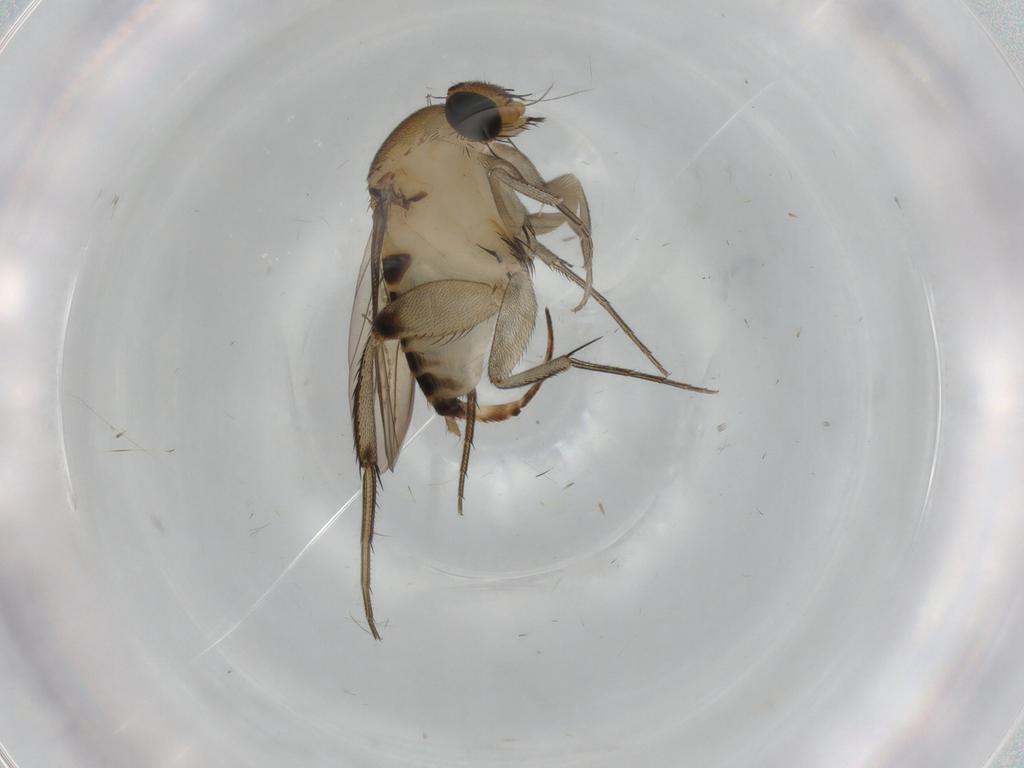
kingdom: Animalia
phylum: Arthropoda
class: Insecta
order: Diptera
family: Cecidomyiidae
